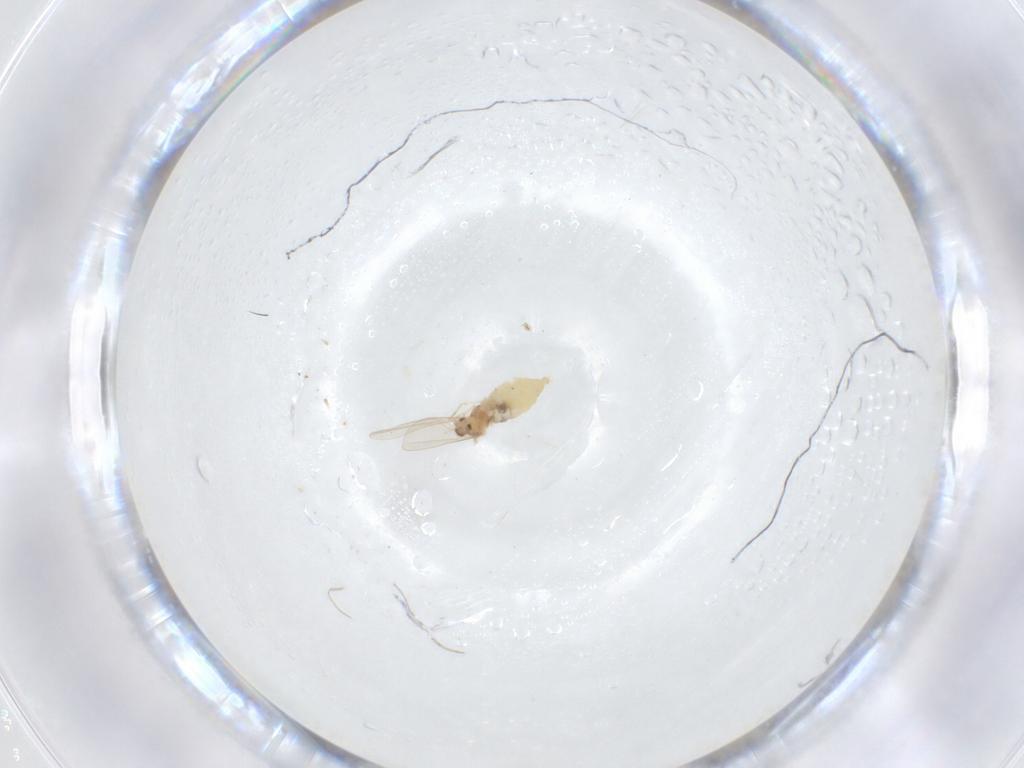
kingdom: Animalia
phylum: Arthropoda
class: Insecta
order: Diptera
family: Cecidomyiidae
